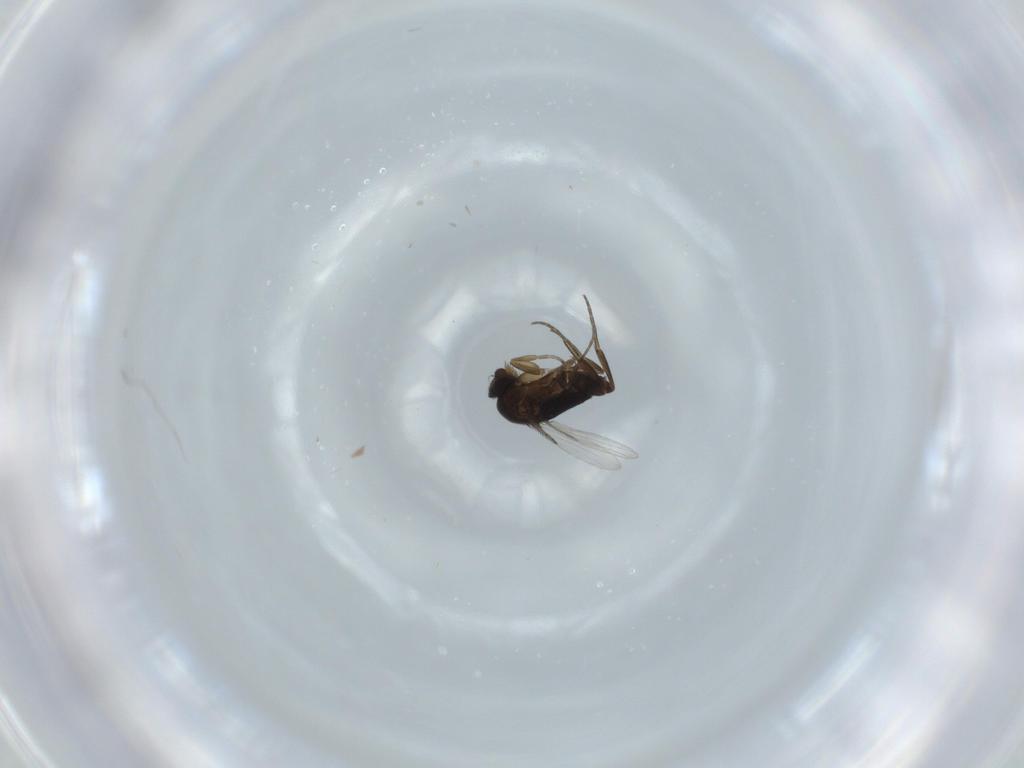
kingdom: Animalia
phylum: Arthropoda
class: Insecta
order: Diptera
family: Phoridae
